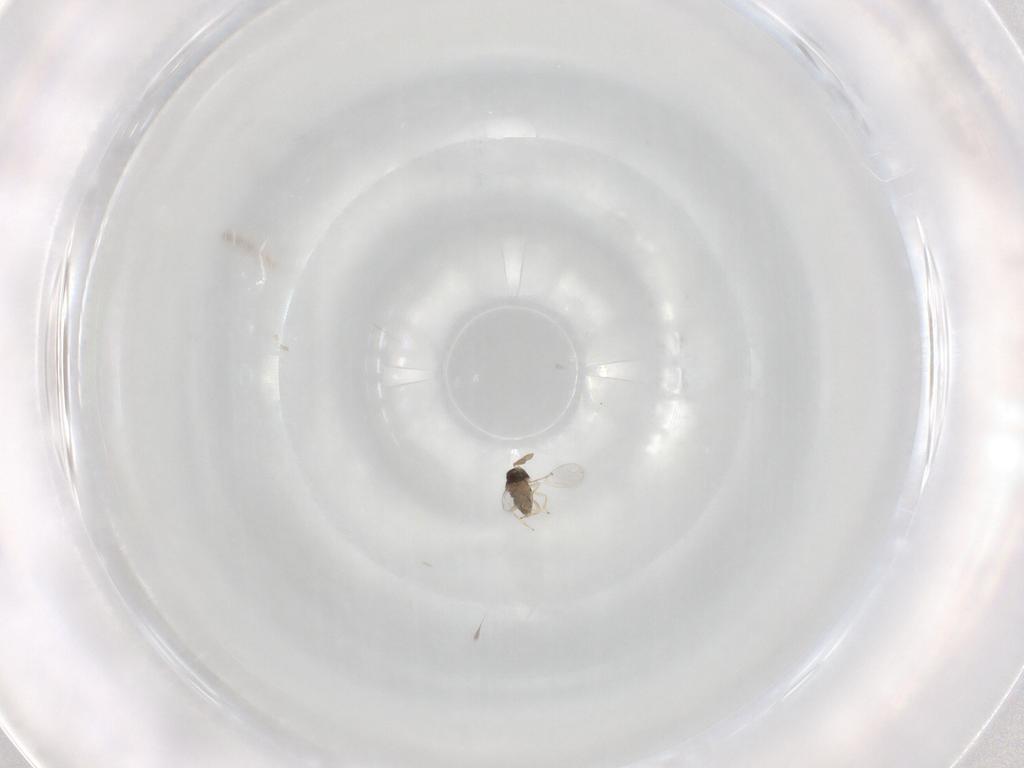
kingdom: Animalia
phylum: Arthropoda
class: Insecta
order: Hymenoptera
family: Encyrtidae
